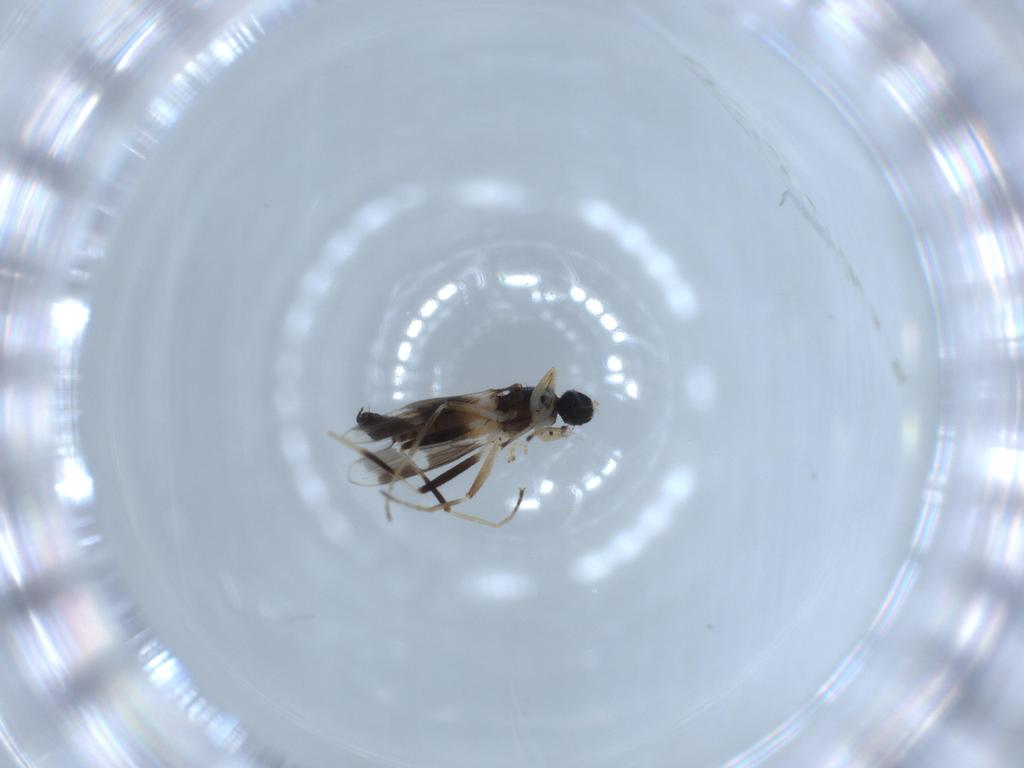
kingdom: Animalia
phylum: Arthropoda
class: Insecta
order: Diptera
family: Hybotidae
